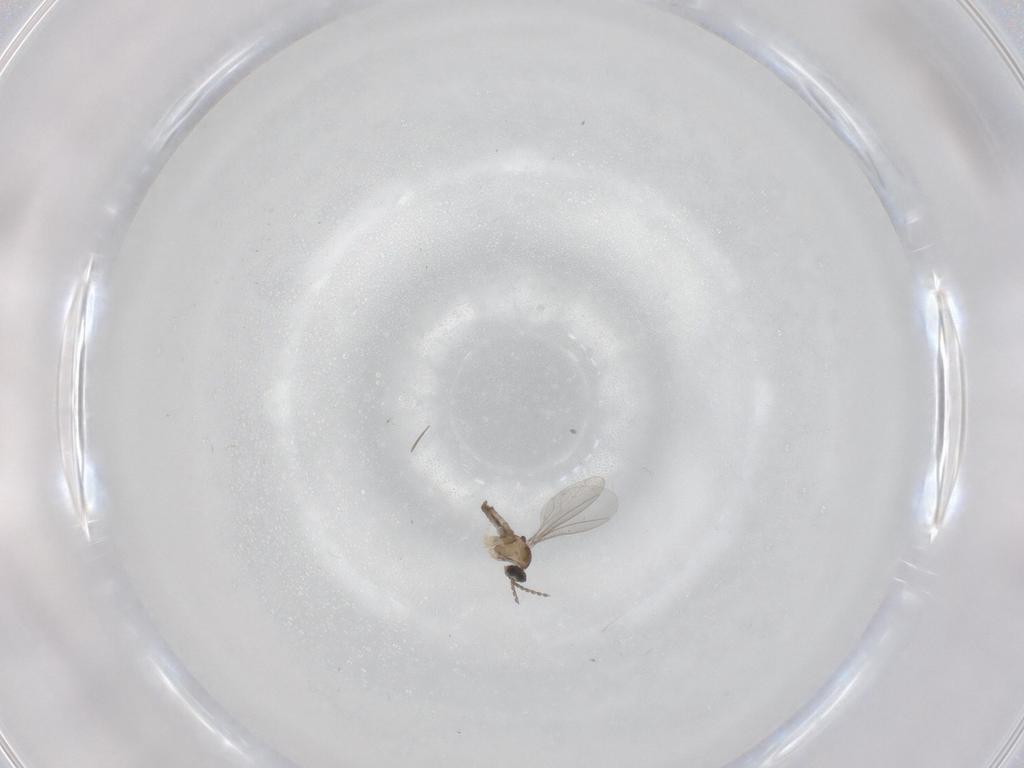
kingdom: Animalia
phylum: Arthropoda
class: Insecta
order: Diptera
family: Cecidomyiidae
